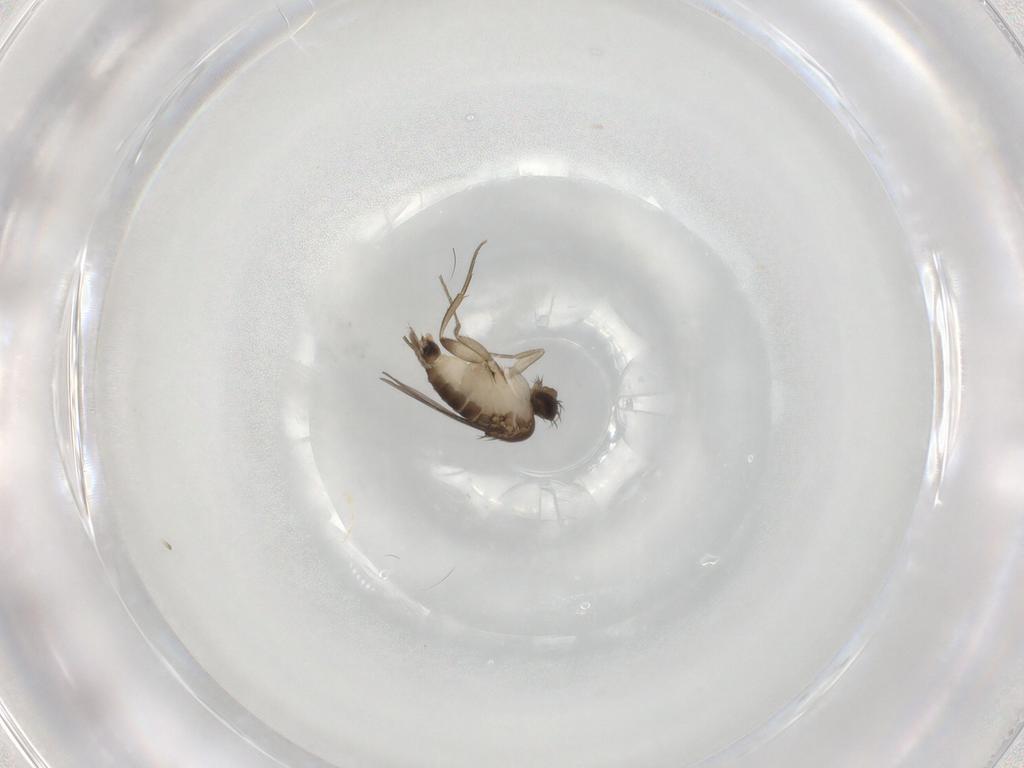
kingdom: Animalia
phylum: Arthropoda
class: Insecta
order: Diptera
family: Phoridae
